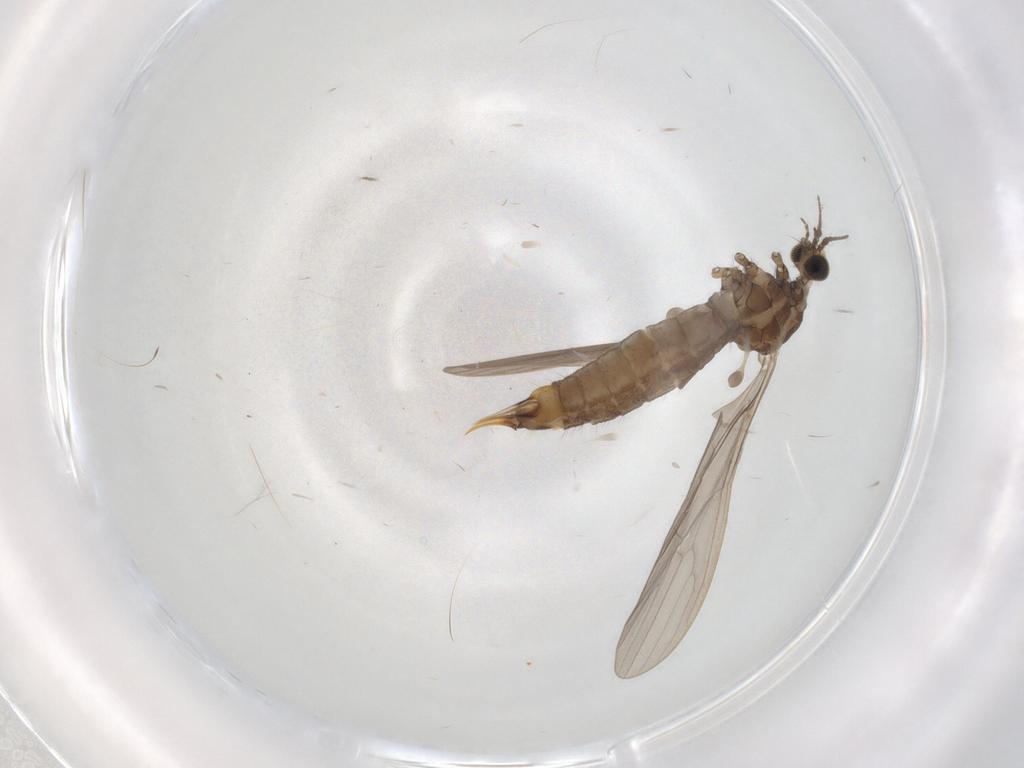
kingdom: Animalia
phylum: Arthropoda
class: Insecta
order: Diptera
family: Limoniidae
